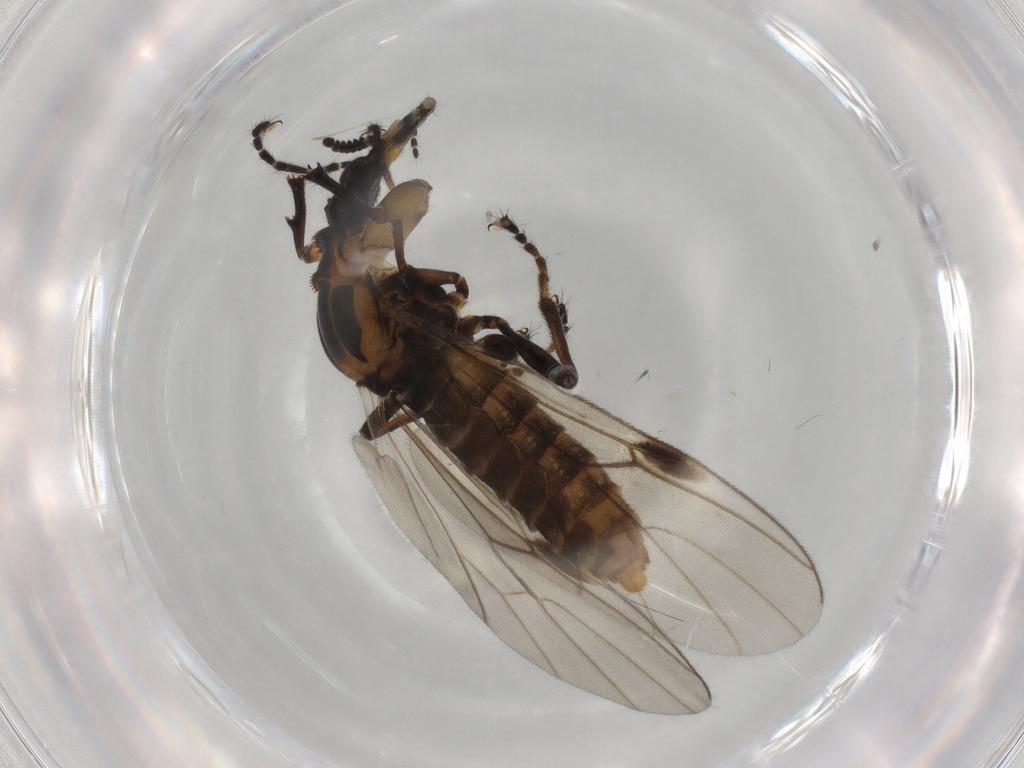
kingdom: Animalia
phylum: Arthropoda
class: Insecta
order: Diptera
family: Bibionidae
